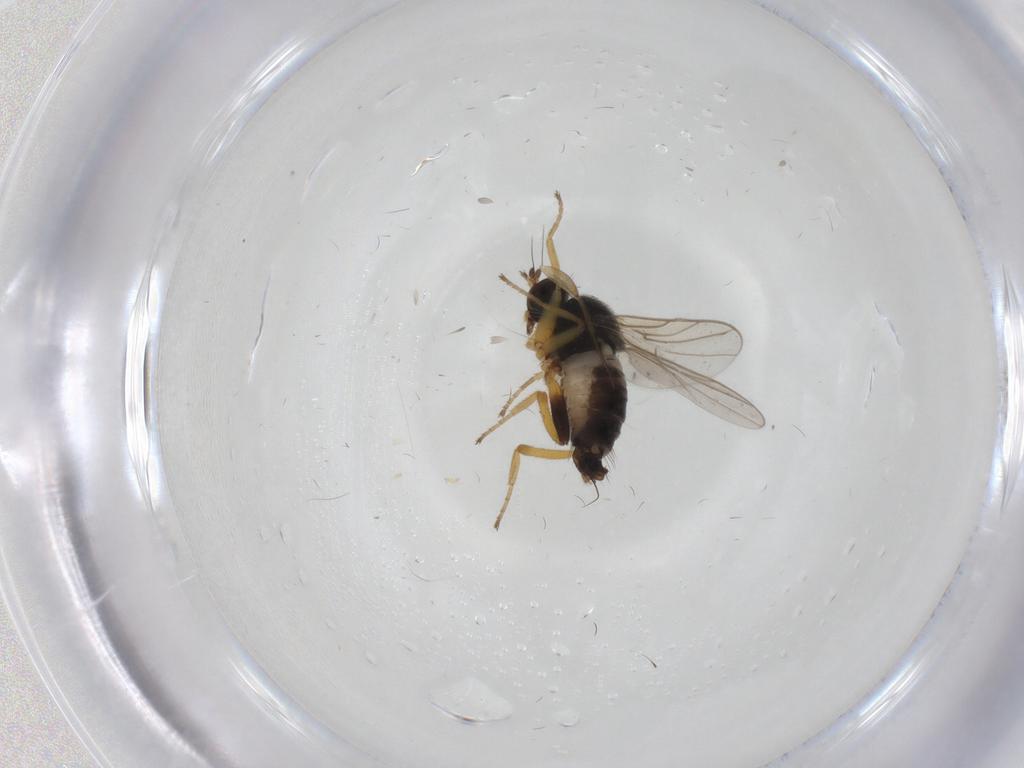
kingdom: Animalia
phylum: Arthropoda
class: Insecta
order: Diptera
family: Hybotidae
